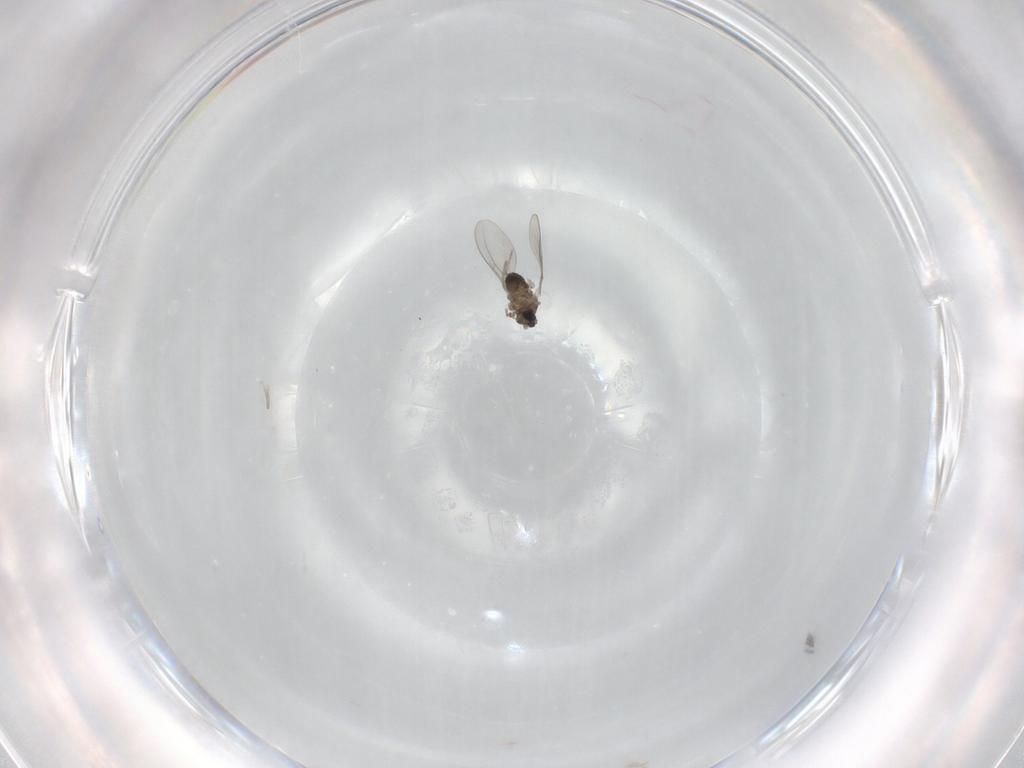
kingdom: Animalia
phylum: Arthropoda
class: Insecta
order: Diptera
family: Cecidomyiidae
